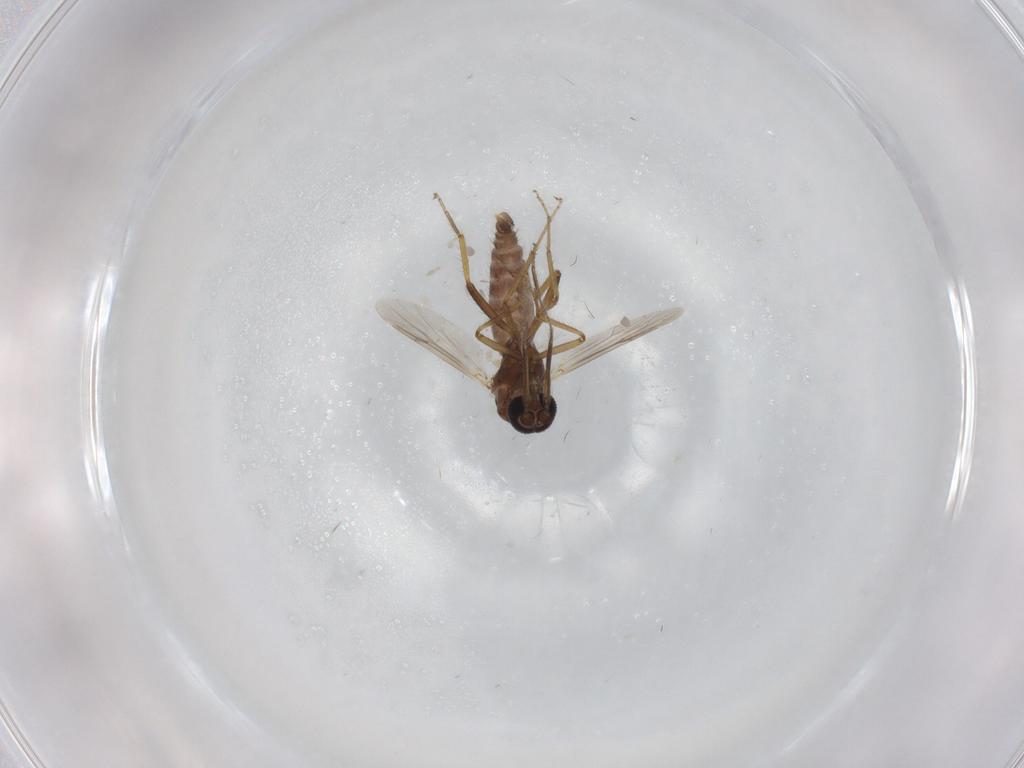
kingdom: Animalia
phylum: Arthropoda
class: Insecta
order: Diptera
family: Ceratopogonidae
